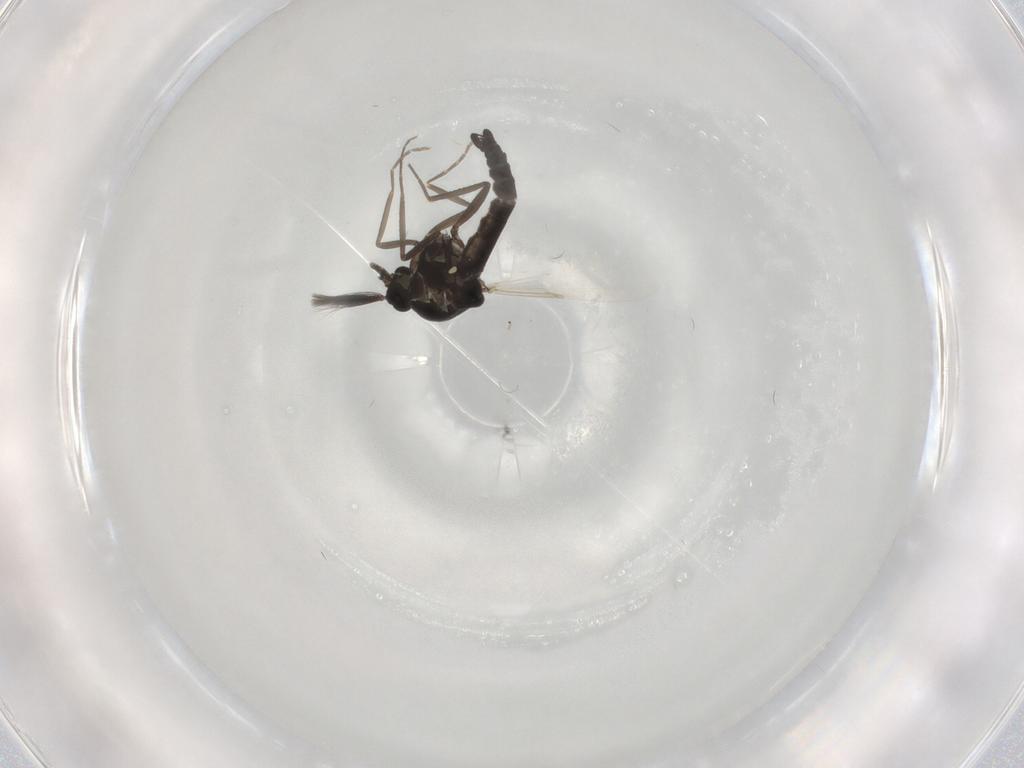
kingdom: Animalia
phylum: Arthropoda
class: Insecta
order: Diptera
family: Ceratopogonidae
